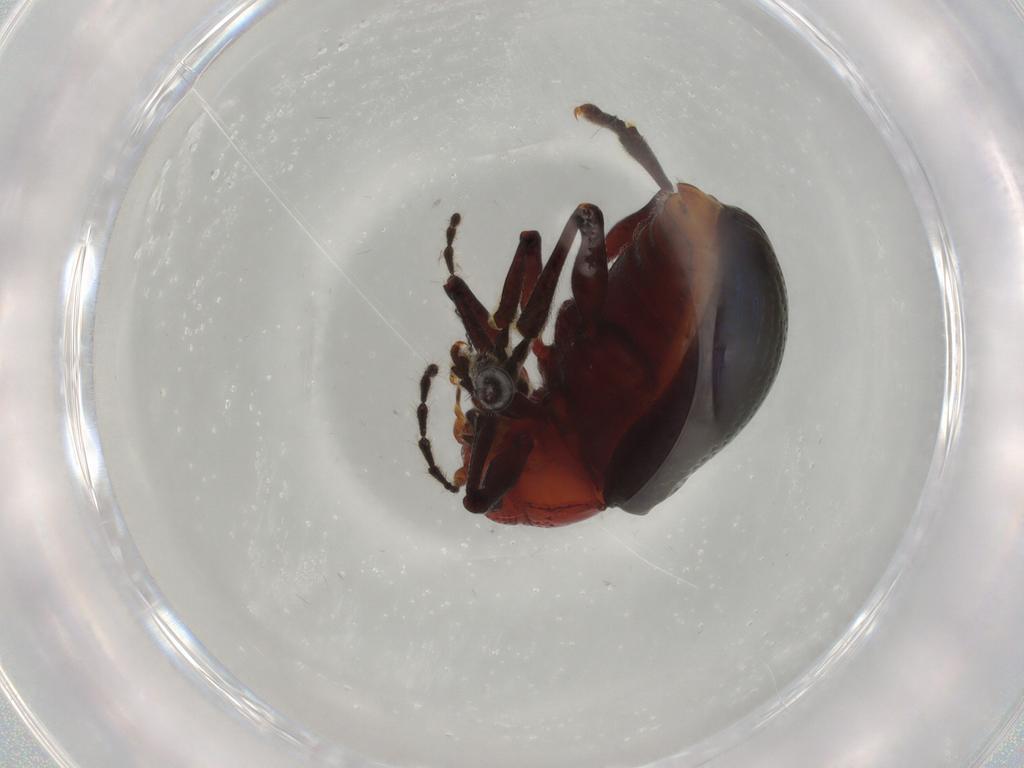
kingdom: Animalia
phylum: Arthropoda
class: Insecta
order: Coleoptera
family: Chrysomelidae
